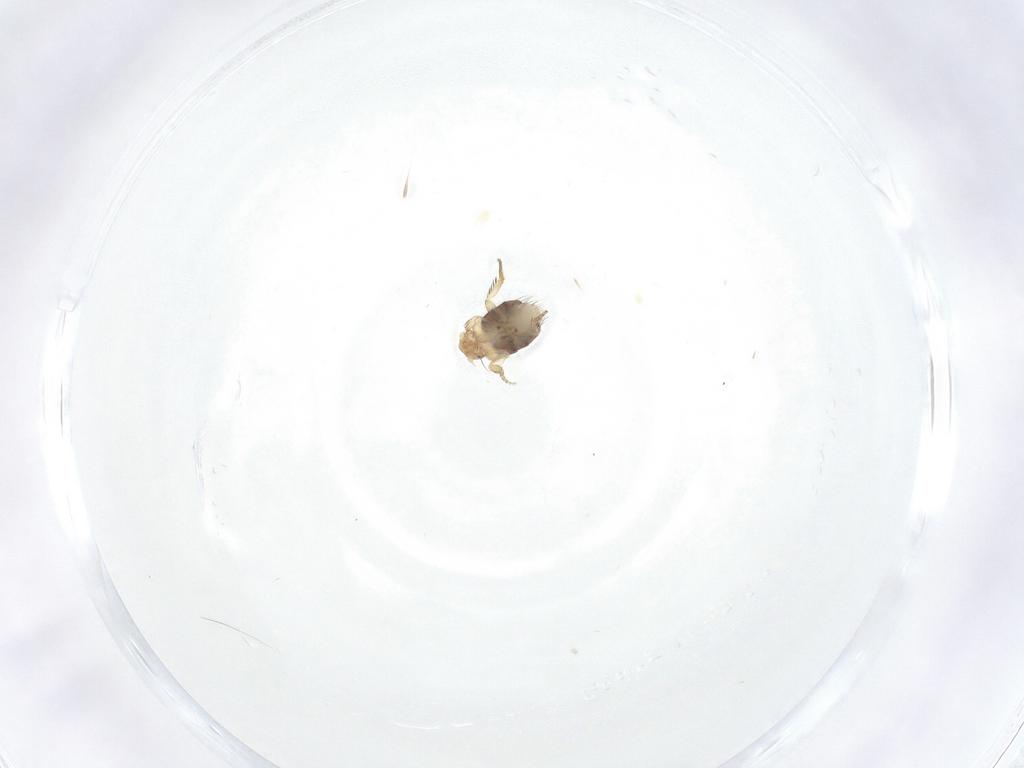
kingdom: Animalia
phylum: Arthropoda
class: Insecta
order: Diptera
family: Phoridae
